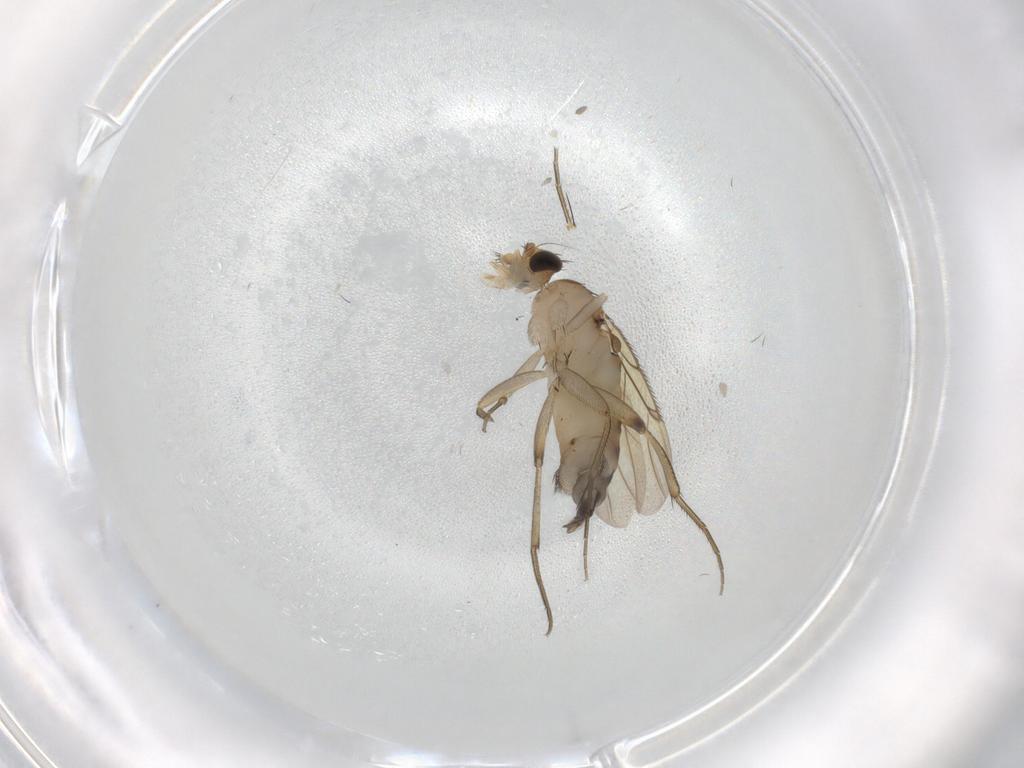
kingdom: Animalia
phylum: Arthropoda
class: Insecta
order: Diptera
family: Phoridae
